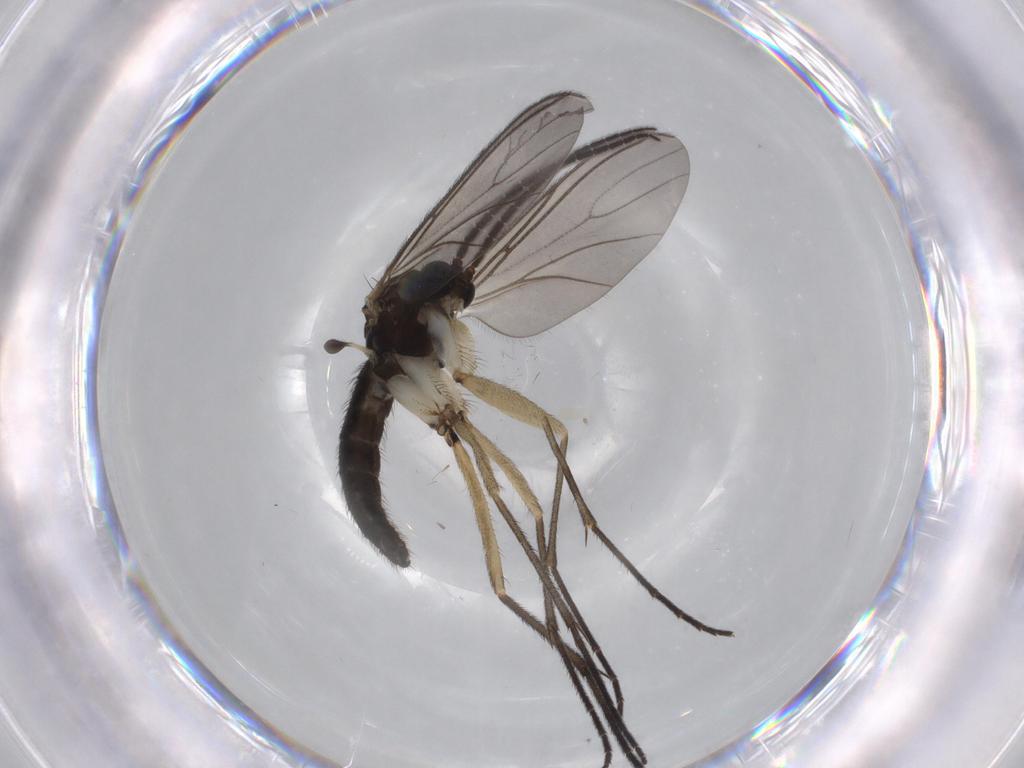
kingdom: Animalia
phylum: Arthropoda
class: Insecta
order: Diptera
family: Sciaridae
